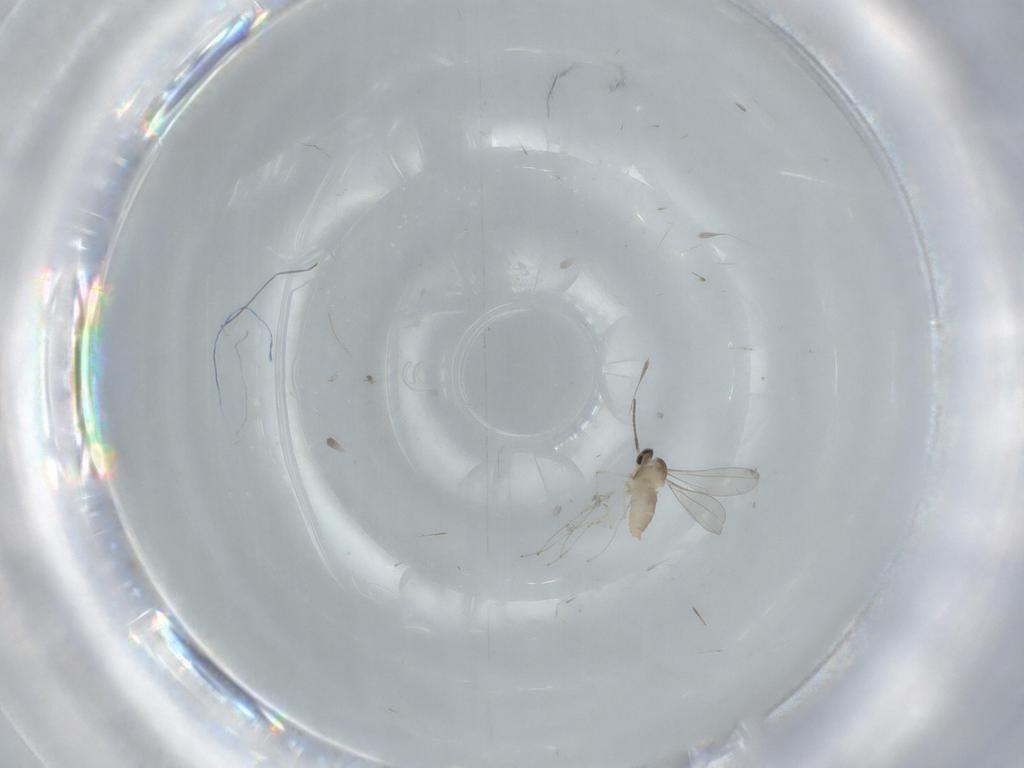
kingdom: Animalia
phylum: Arthropoda
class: Insecta
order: Diptera
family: Cecidomyiidae
